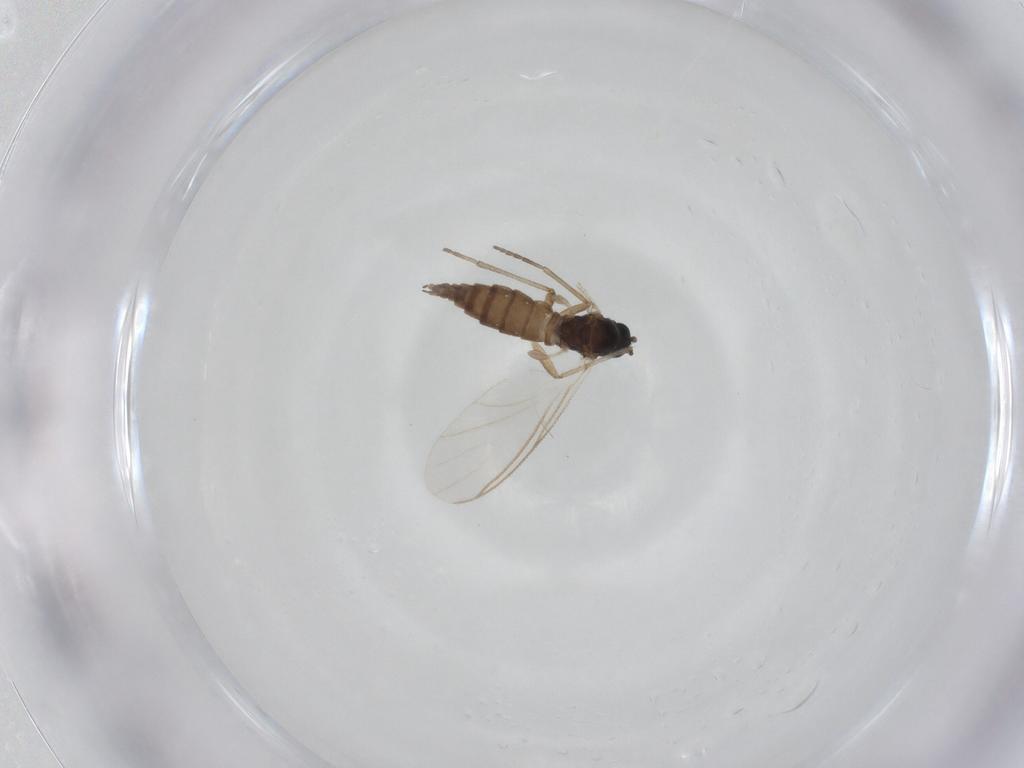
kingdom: Animalia
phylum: Arthropoda
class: Insecta
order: Diptera
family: Sciaridae
